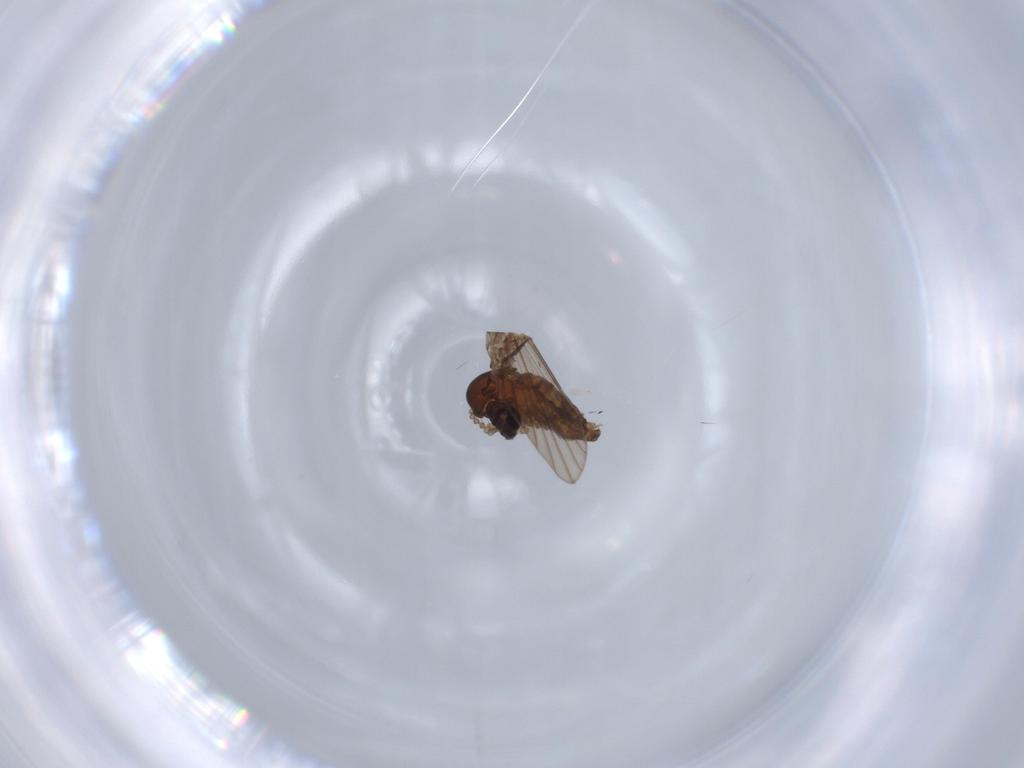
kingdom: Animalia
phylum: Arthropoda
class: Insecta
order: Diptera
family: Psychodidae
